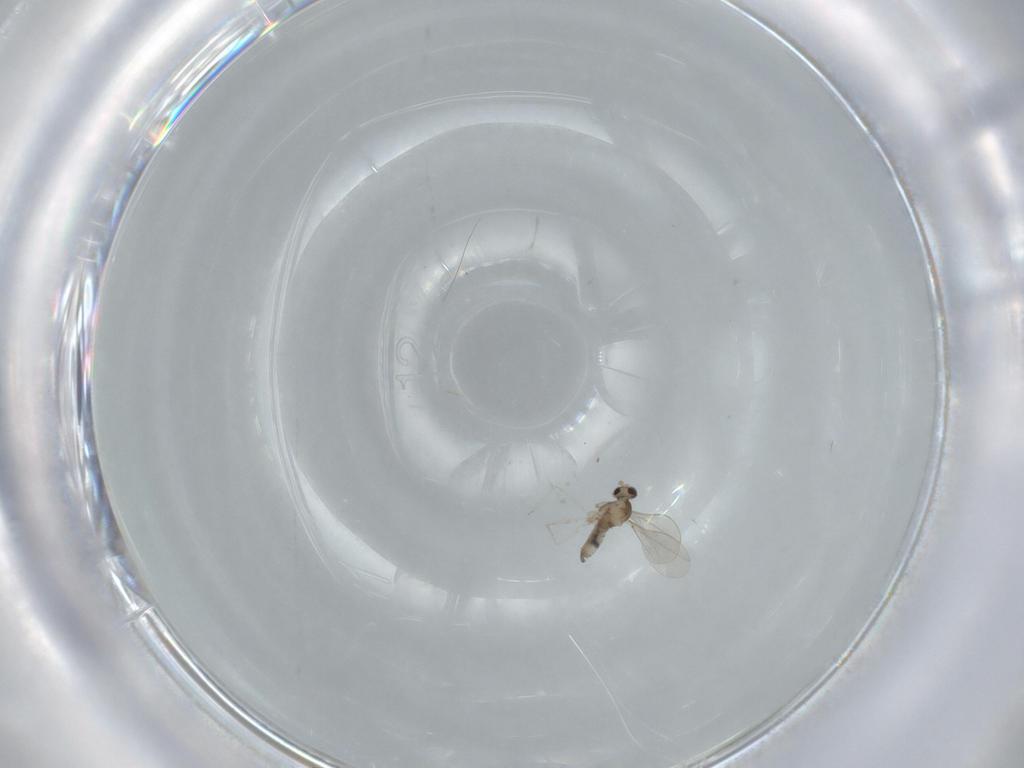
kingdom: Animalia
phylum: Arthropoda
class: Insecta
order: Diptera
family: Cecidomyiidae
